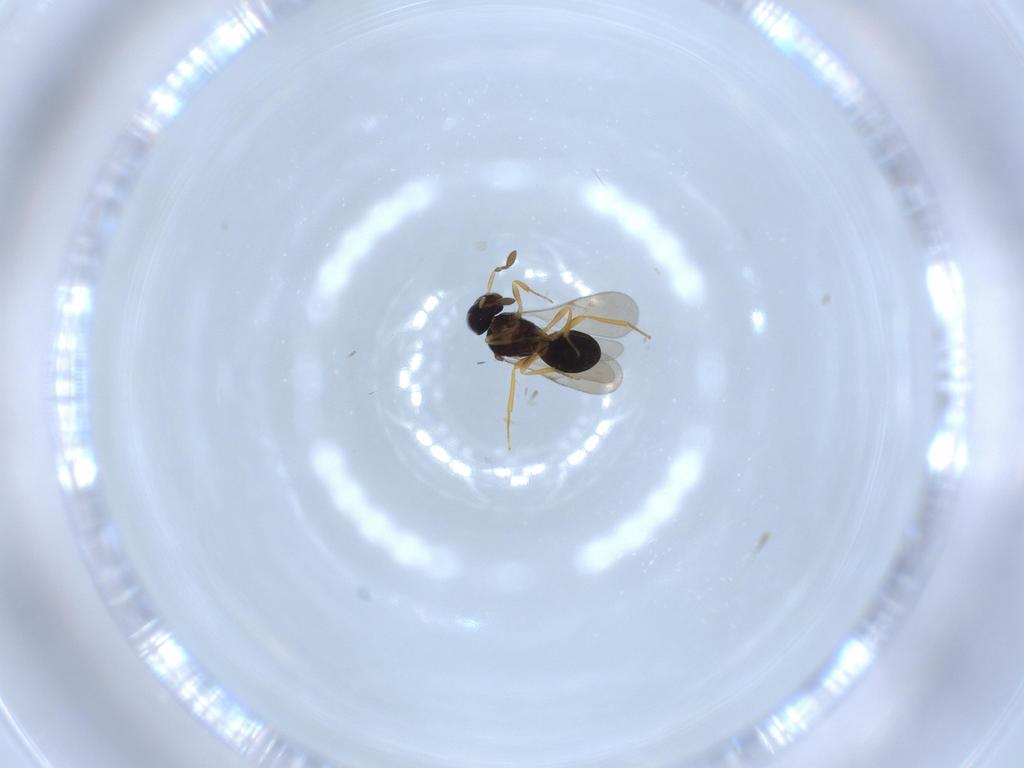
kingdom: Animalia
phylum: Arthropoda
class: Insecta
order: Hymenoptera
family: Scelionidae
